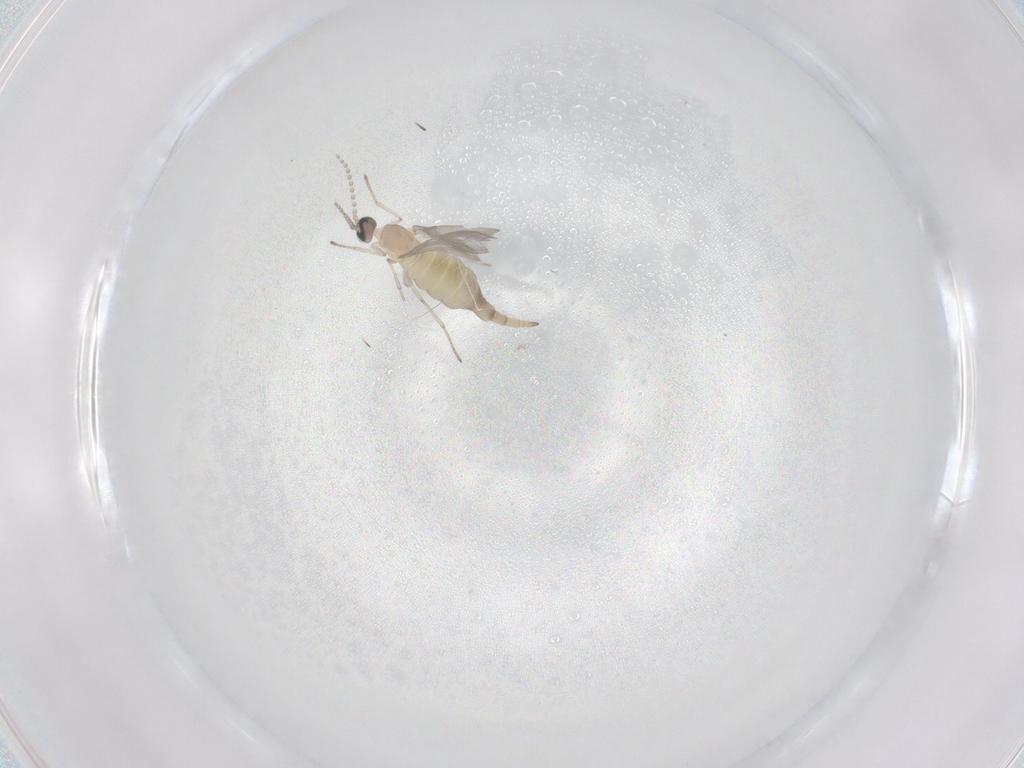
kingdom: Animalia
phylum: Arthropoda
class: Insecta
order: Diptera
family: Cecidomyiidae
